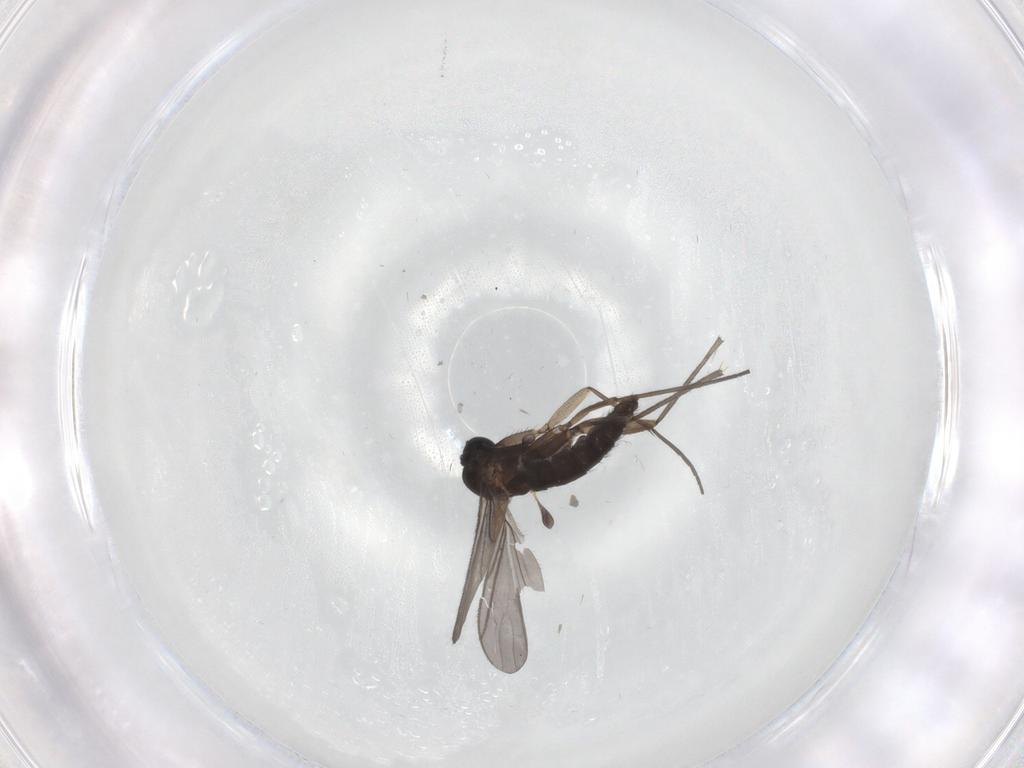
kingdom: Animalia
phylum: Arthropoda
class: Insecta
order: Diptera
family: Sciaridae
